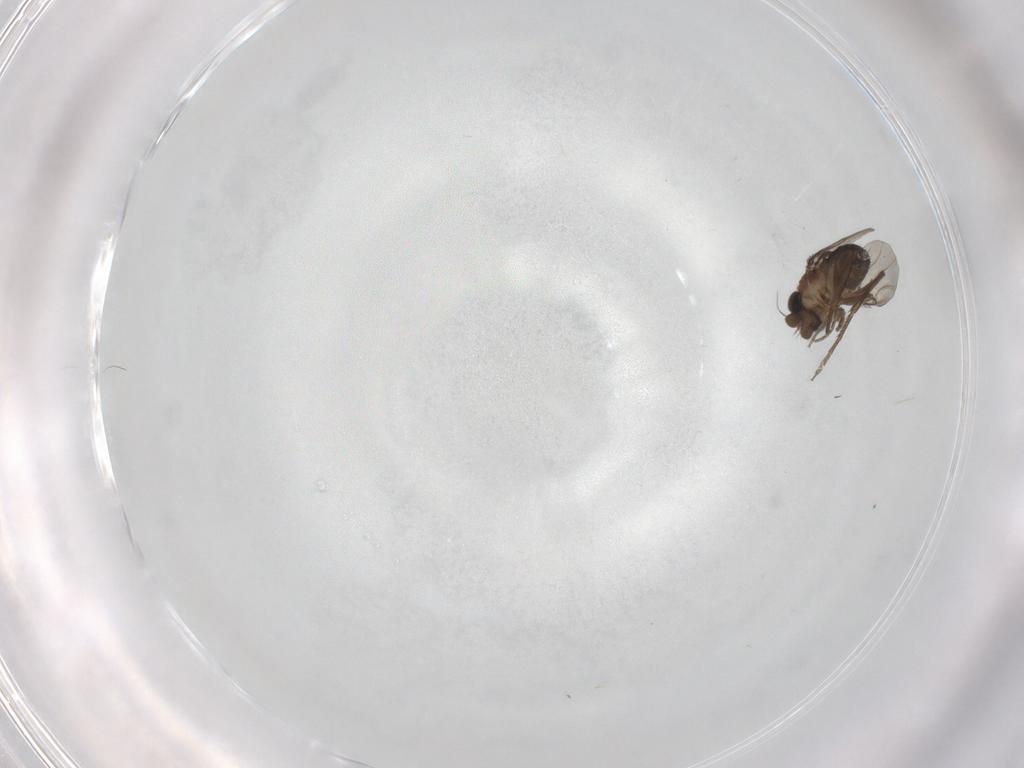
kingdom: Animalia
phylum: Arthropoda
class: Insecta
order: Diptera
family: Phoridae
